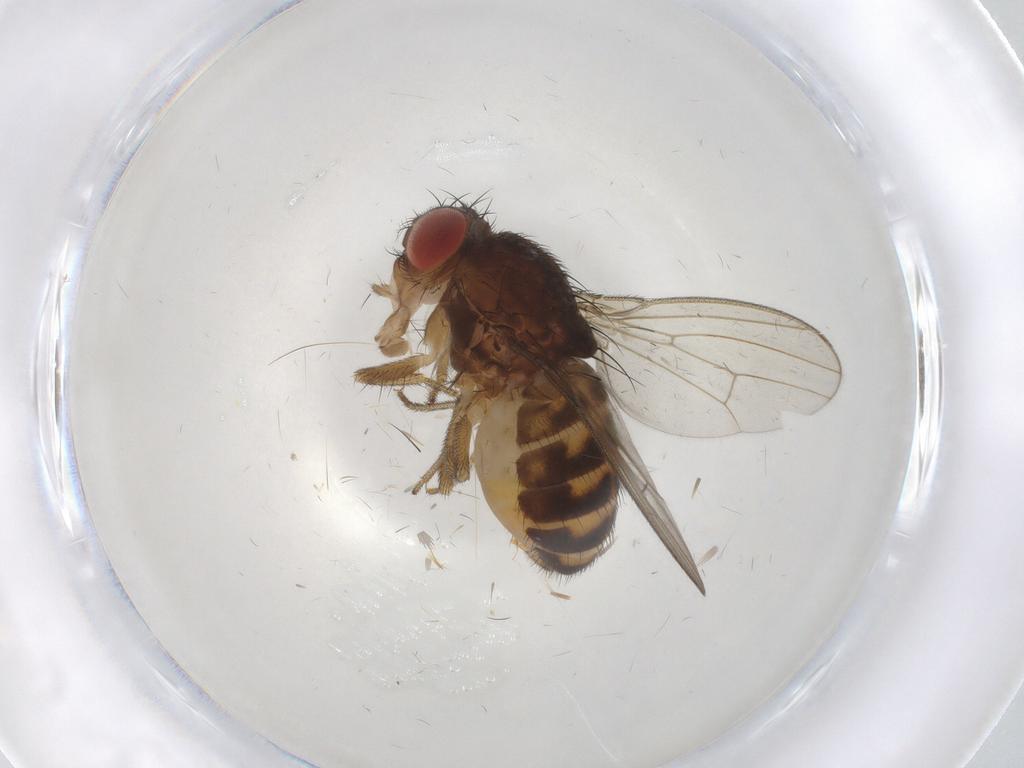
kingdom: Animalia
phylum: Arthropoda
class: Insecta
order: Diptera
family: Drosophilidae
